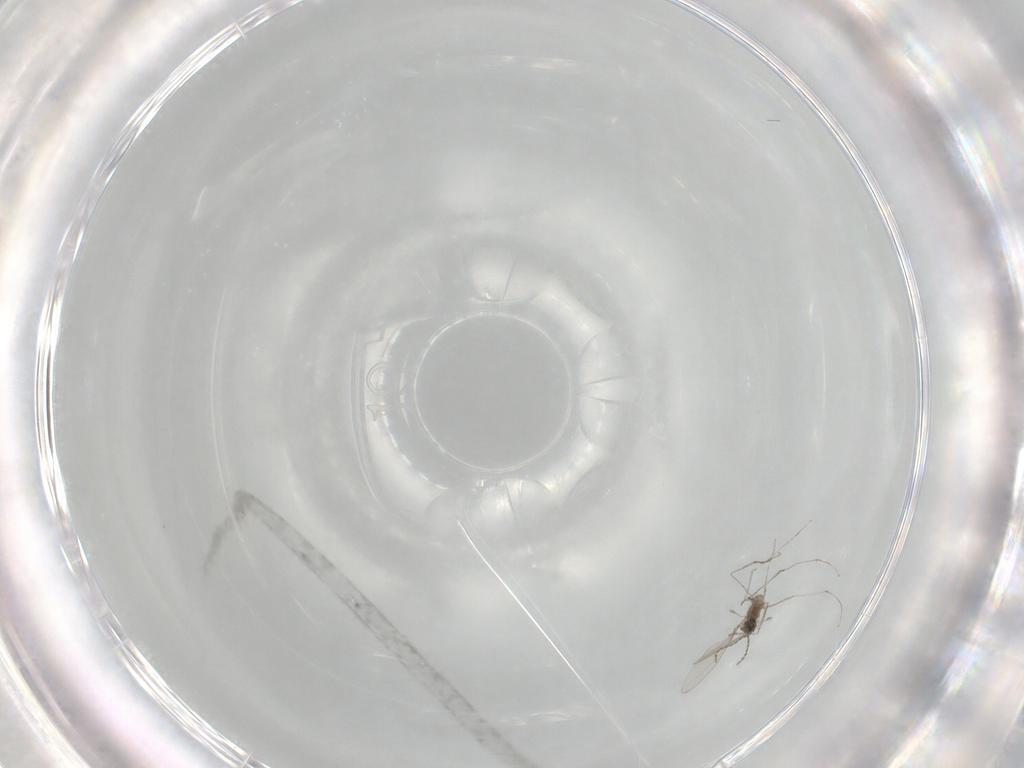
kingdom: Animalia
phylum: Arthropoda
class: Insecta
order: Diptera
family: Cecidomyiidae
